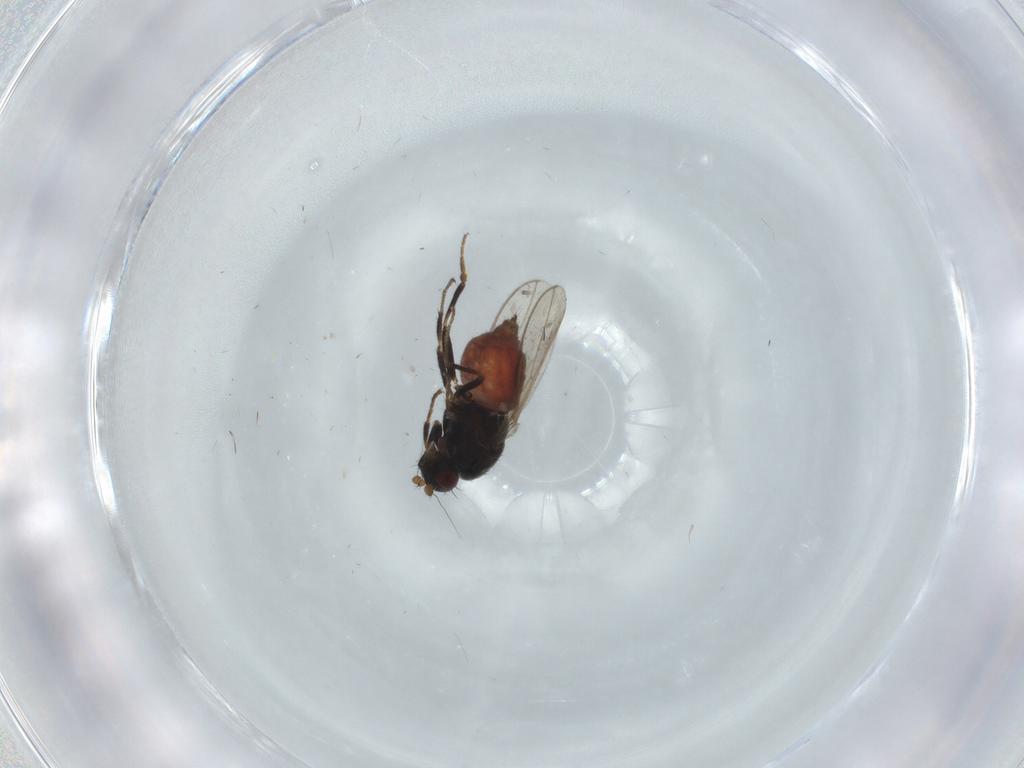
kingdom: Animalia
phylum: Arthropoda
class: Insecta
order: Diptera
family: Sphaeroceridae
